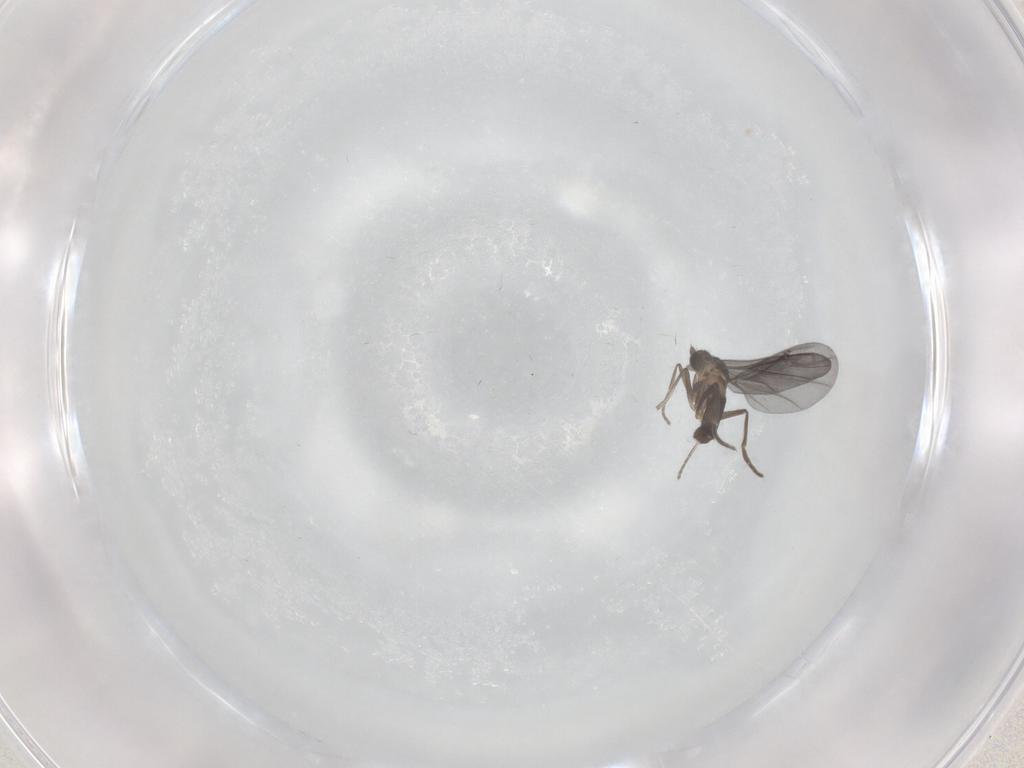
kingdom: Animalia
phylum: Arthropoda
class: Insecta
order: Diptera
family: Phoridae
